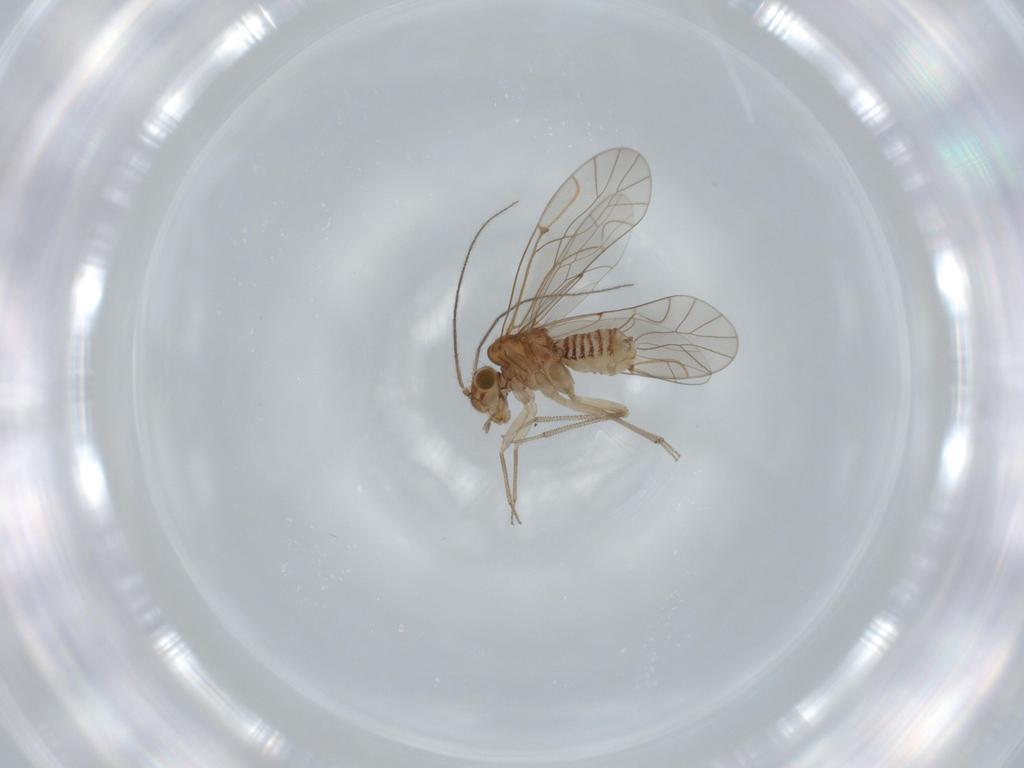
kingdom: Animalia
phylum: Arthropoda
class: Insecta
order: Psocodea
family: Lachesillidae
